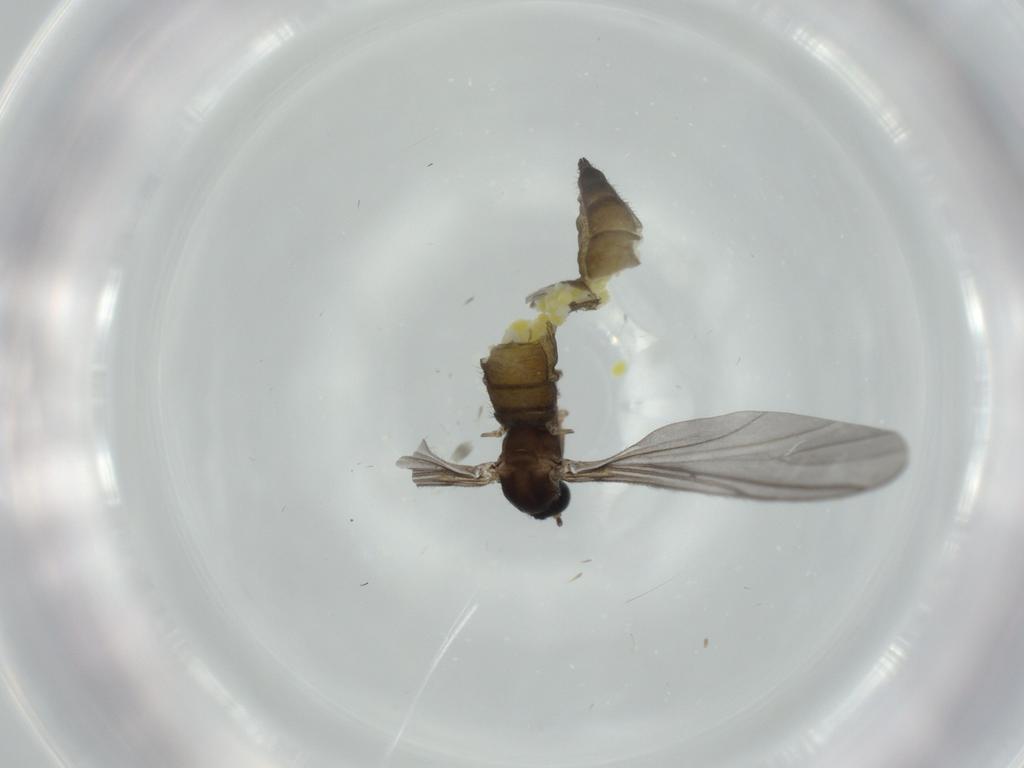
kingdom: Animalia
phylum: Arthropoda
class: Insecta
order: Diptera
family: Sciaridae
